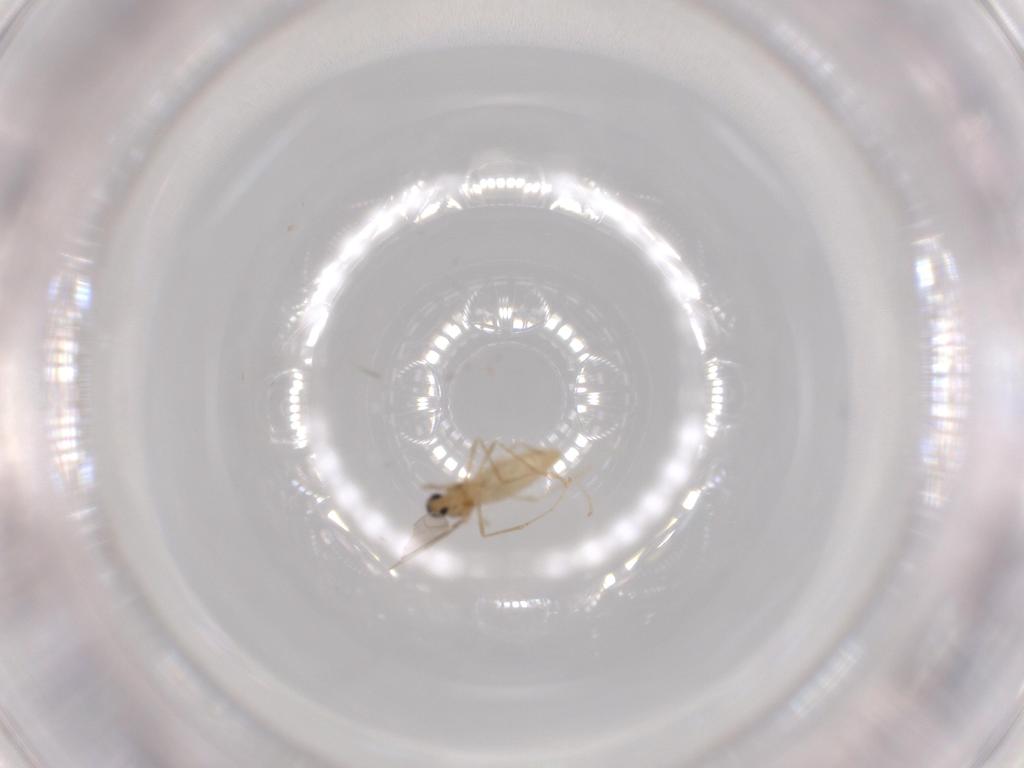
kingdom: Animalia
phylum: Arthropoda
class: Insecta
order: Diptera
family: Cecidomyiidae
